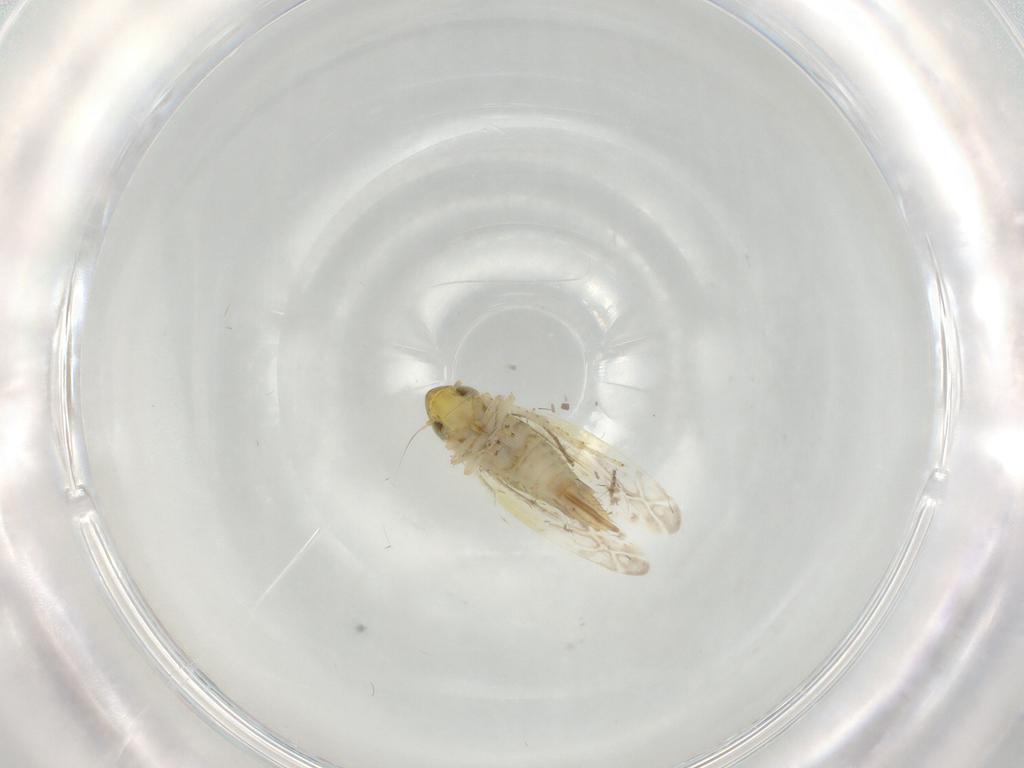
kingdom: Animalia
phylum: Arthropoda
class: Insecta
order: Hemiptera
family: Cicadellidae
